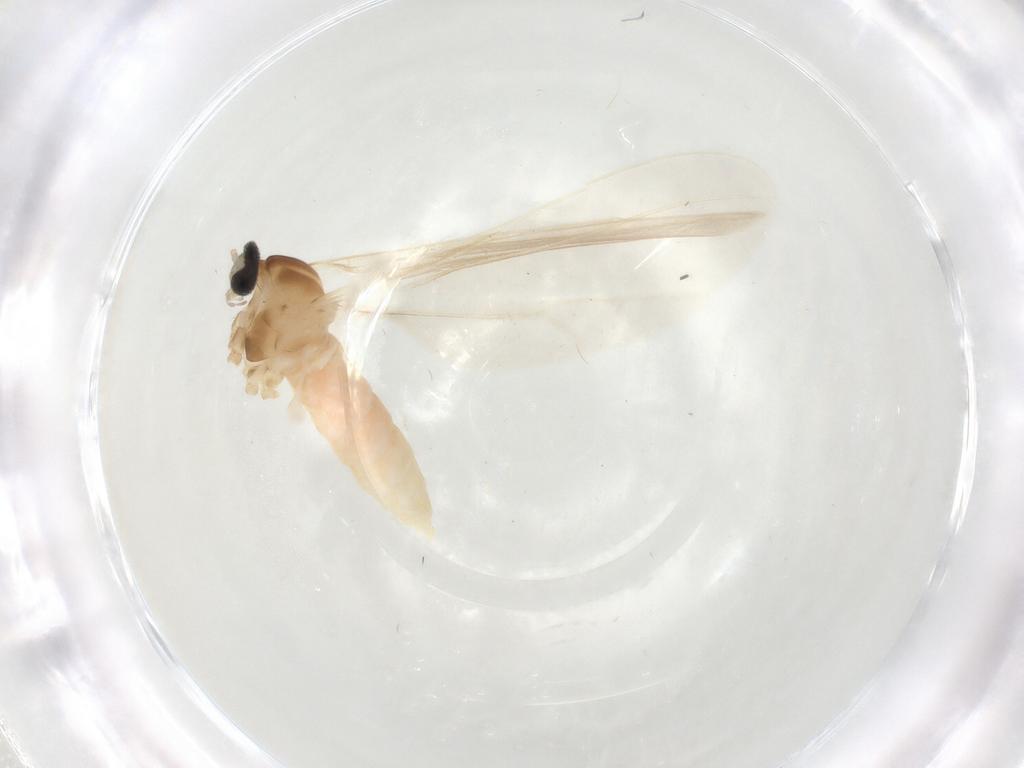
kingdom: Animalia
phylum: Arthropoda
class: Insecta
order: Diptera
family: Cecidomyiidae
